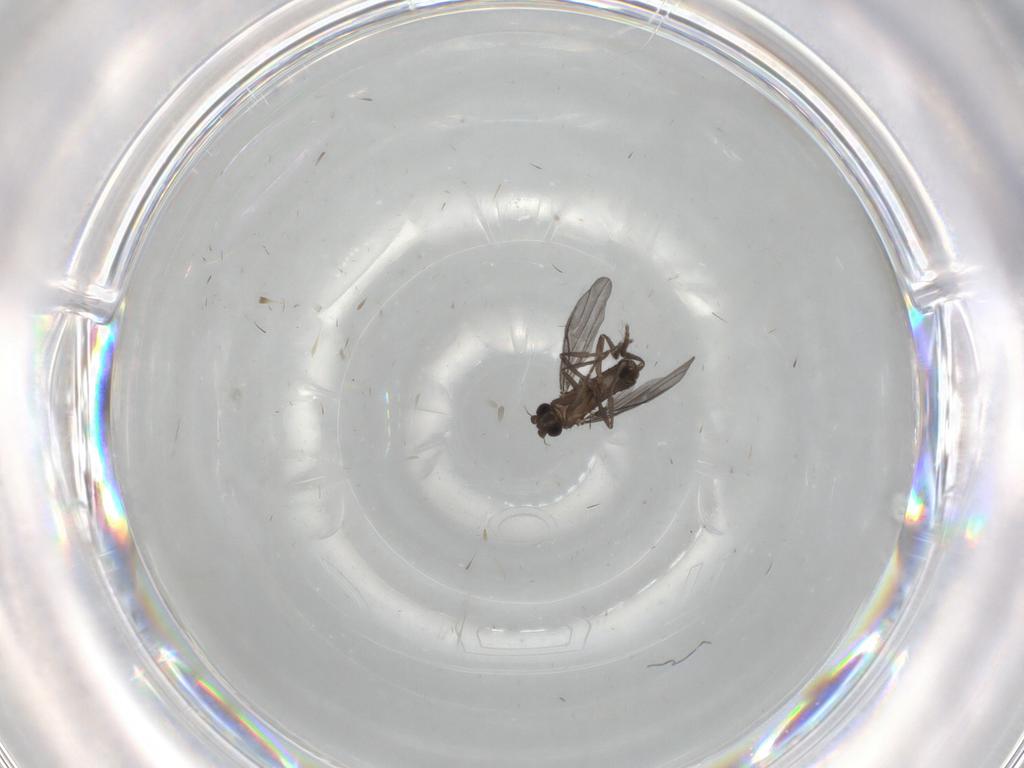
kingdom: Animalia
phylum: Arthropoda
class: Insecta
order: Diptera
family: Phoridae
